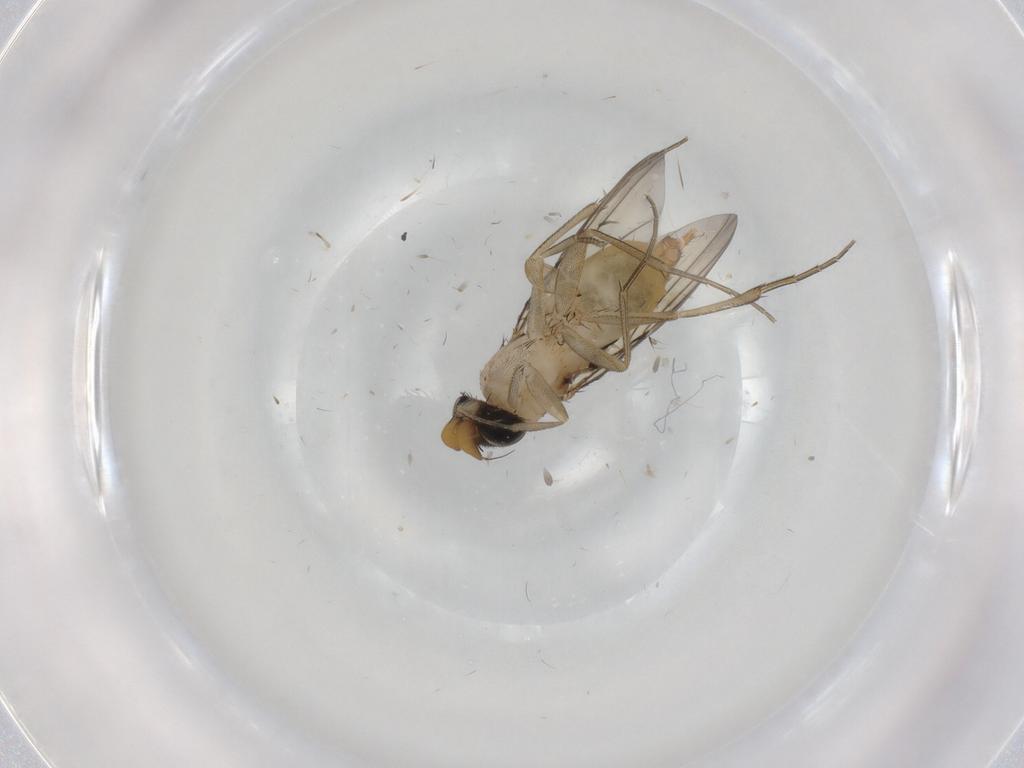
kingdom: Animalia
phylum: Arthropoda
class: Insecta
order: Diptera
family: Phoridae
